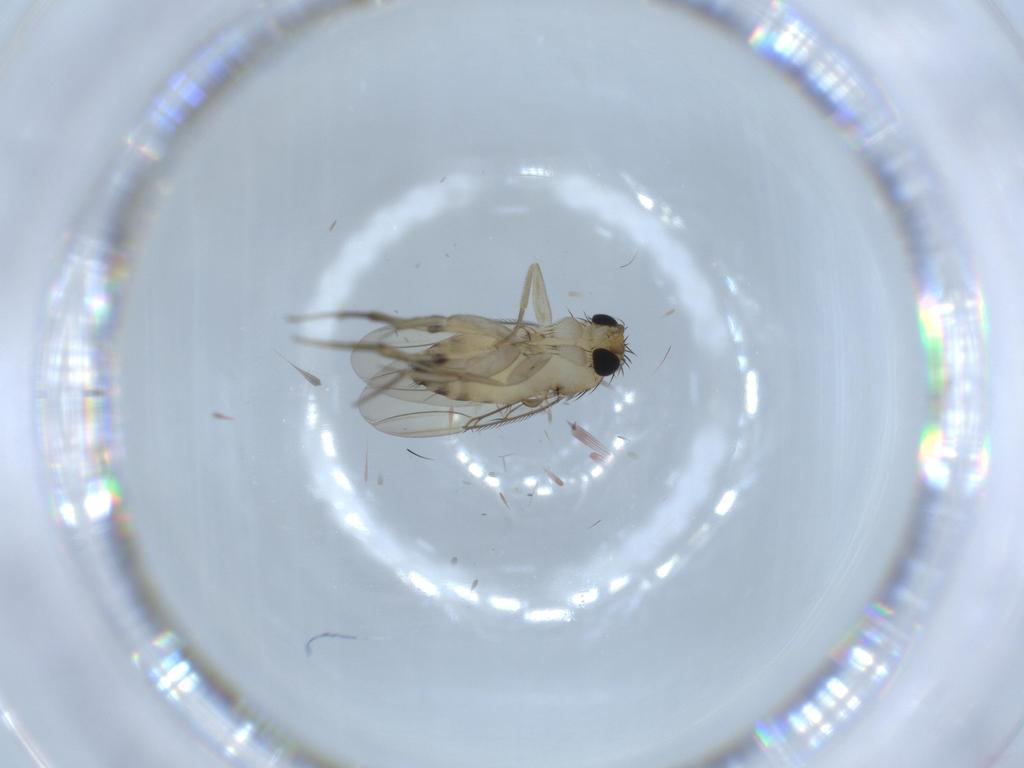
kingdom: Animalia
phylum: Arthropoda
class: Insecta
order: Diptera
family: Phoridae
